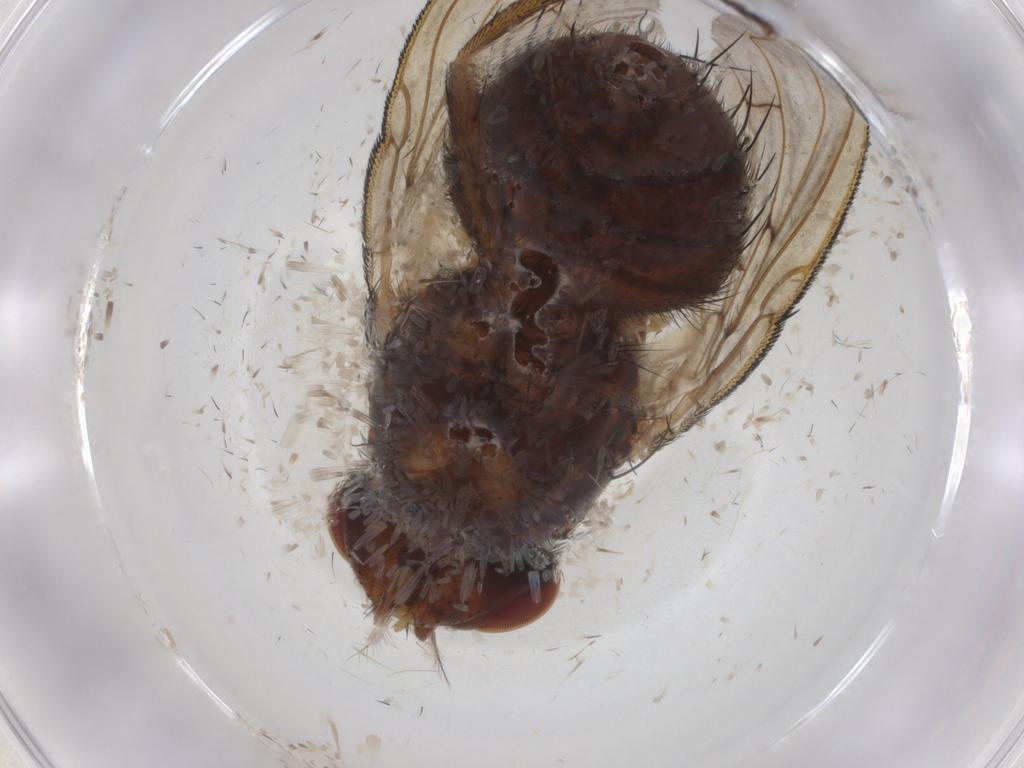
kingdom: Animalia
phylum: Arthropoda
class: Insecta
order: Diptera
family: Tachinidae
